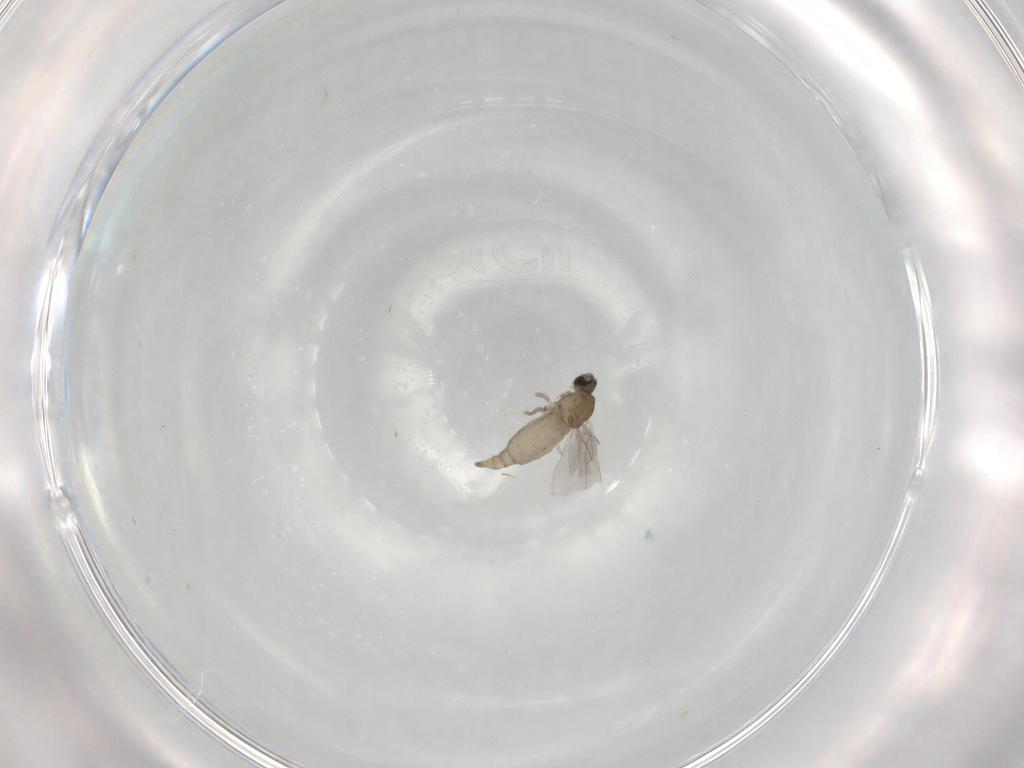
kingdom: Animalia
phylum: Arthropoda
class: Insecta
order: Diptera
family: Cecidomyiidae
